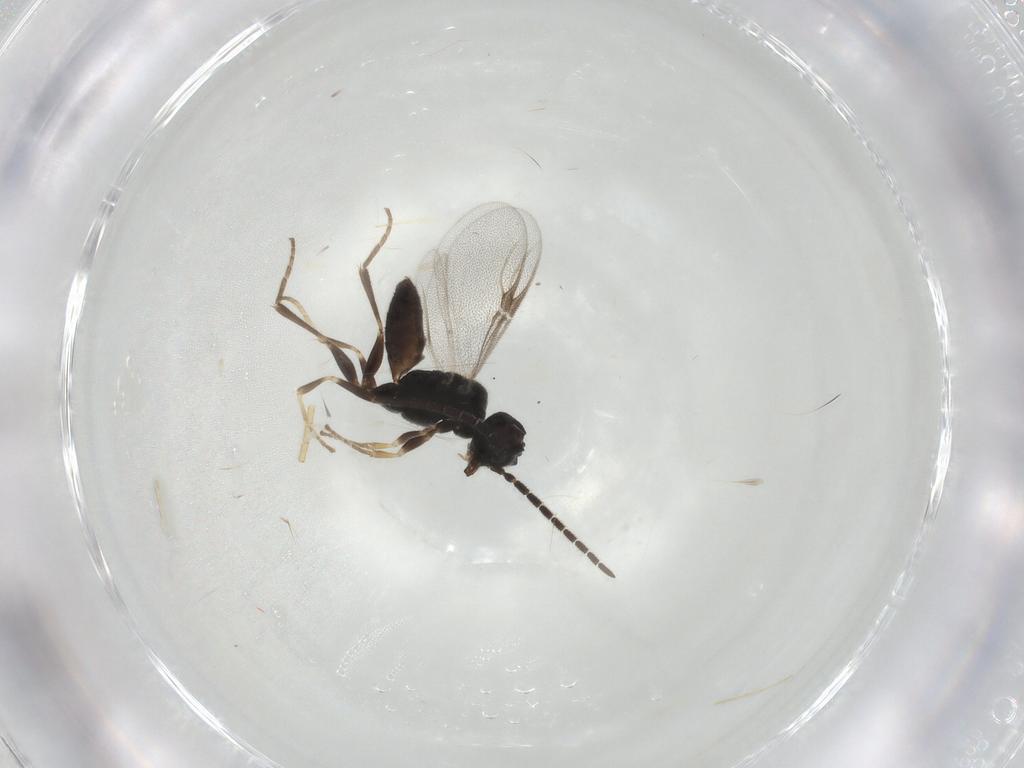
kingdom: Animalia
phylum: Arthropoda
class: Insecta
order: Hymenoptera
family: Dryinidae
